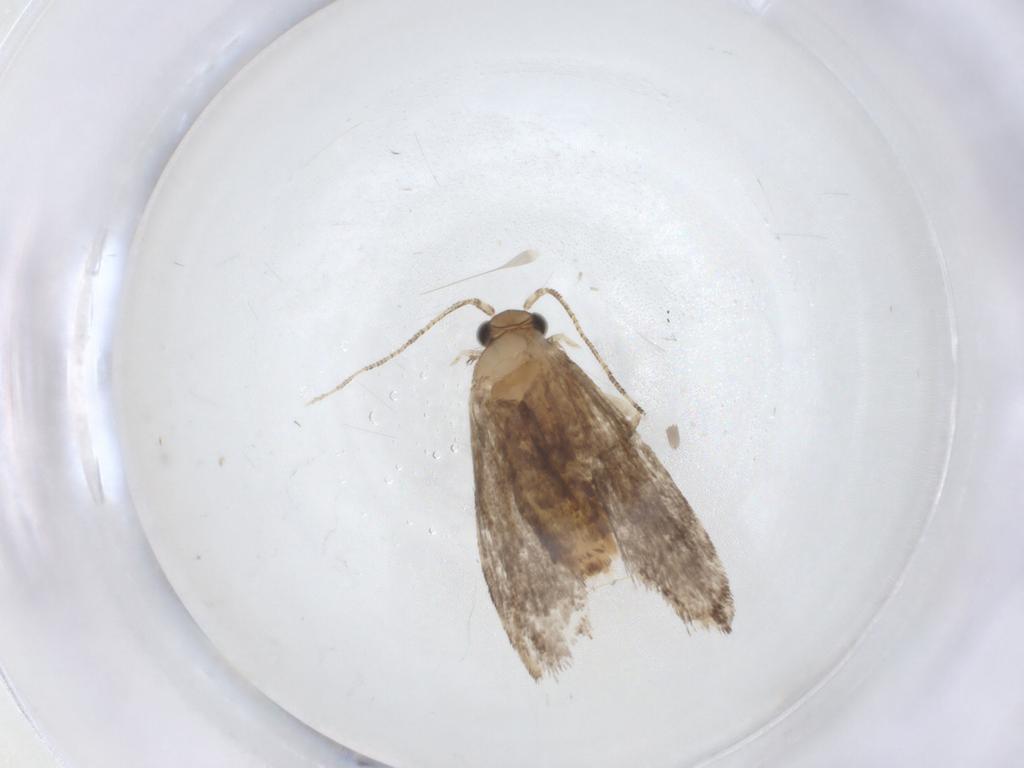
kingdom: Animalia
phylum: Arthropoda
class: Insecta
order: Lepidoptera
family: Tineidae
